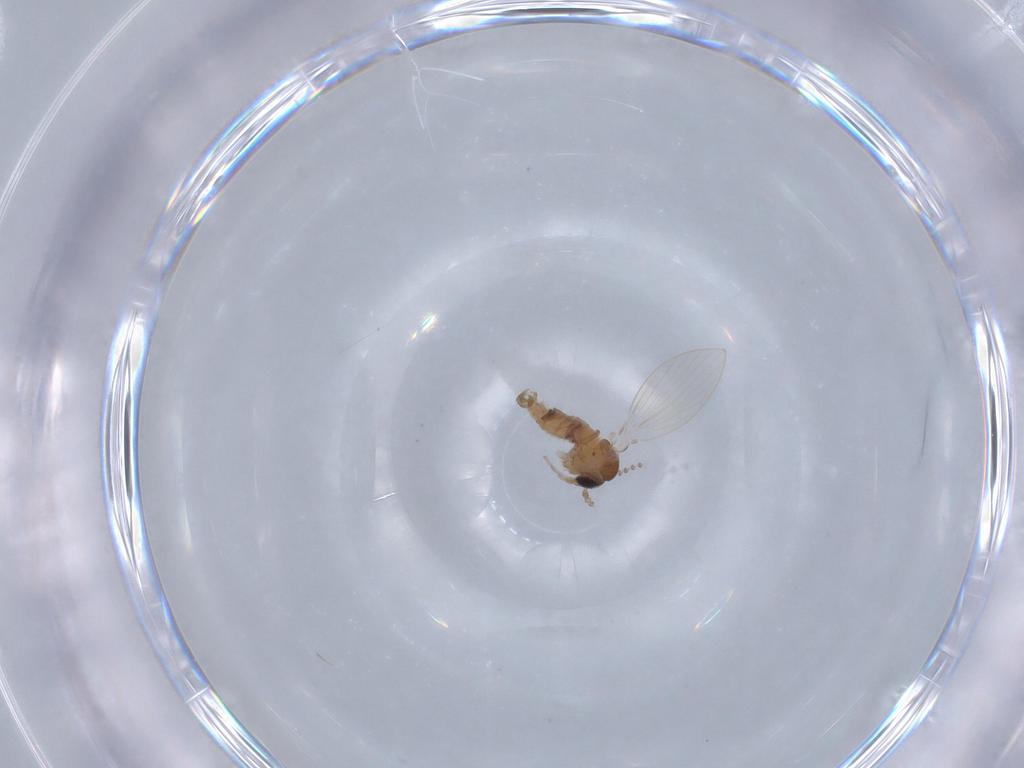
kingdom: Animalia
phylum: Arthropoda
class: Insecta
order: Diptera
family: Psychodidae
